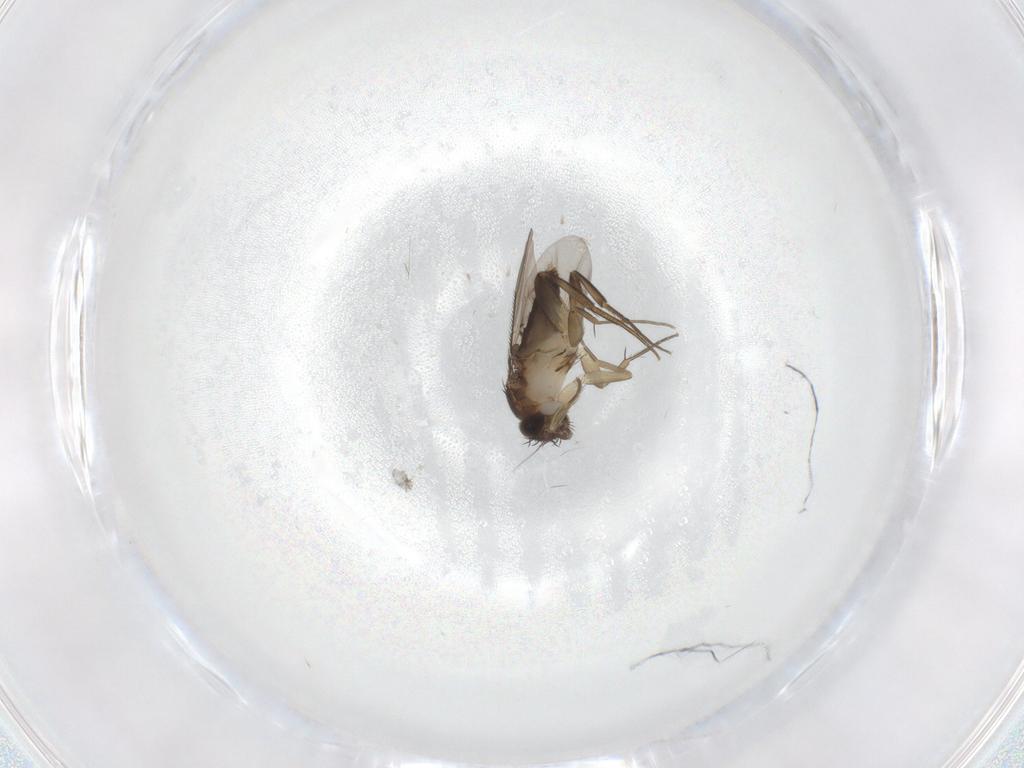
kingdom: Animalia
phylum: Arthropoda
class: Insecta
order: Diptera
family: Phoridae
